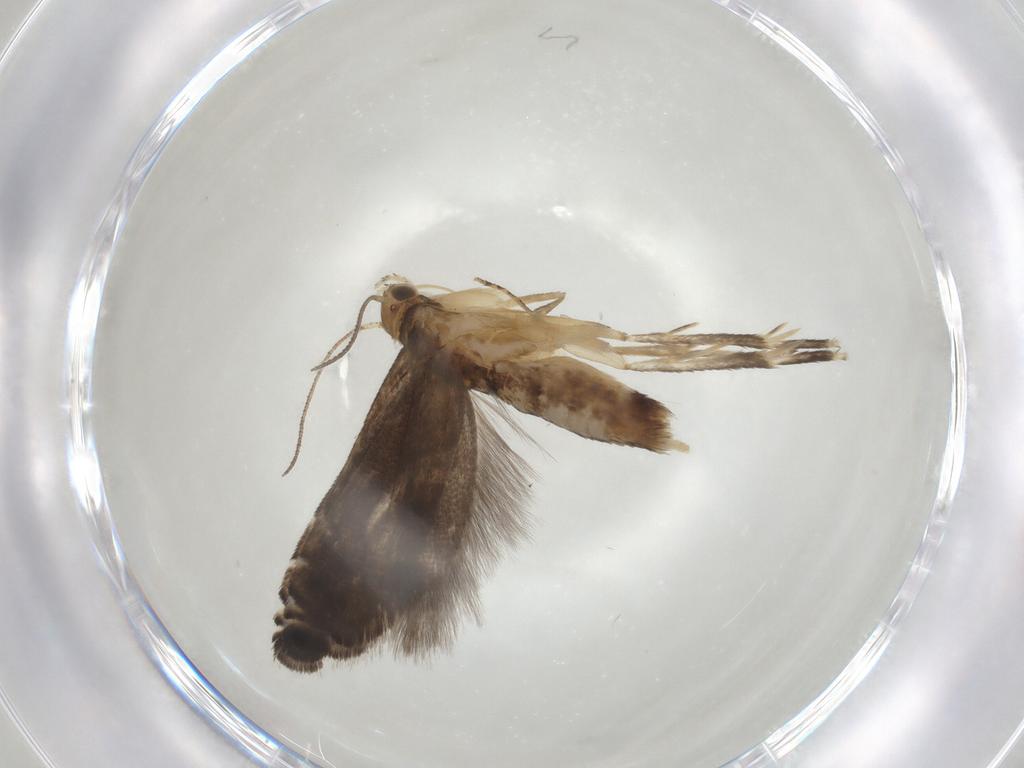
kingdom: Animalia
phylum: Arthropoda
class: Insecta
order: Lepidoptera
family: Glyphipterigidae
